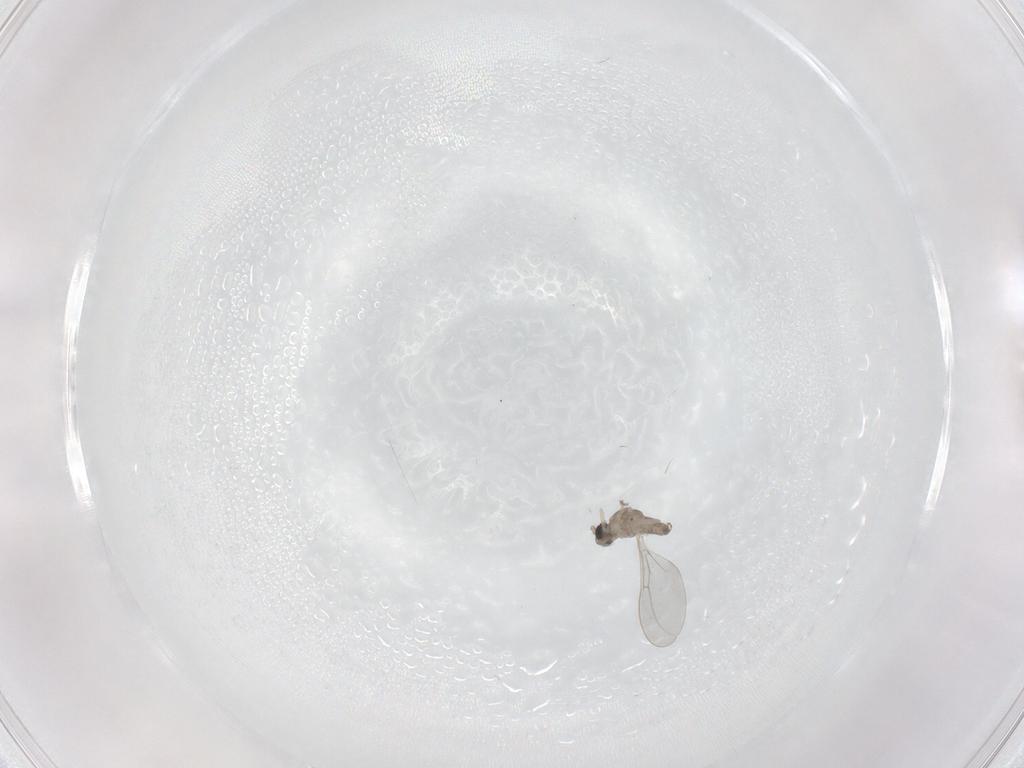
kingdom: Animalia
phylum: Arthropoda
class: Insecta
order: Diptera
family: Cecidomyiidae
